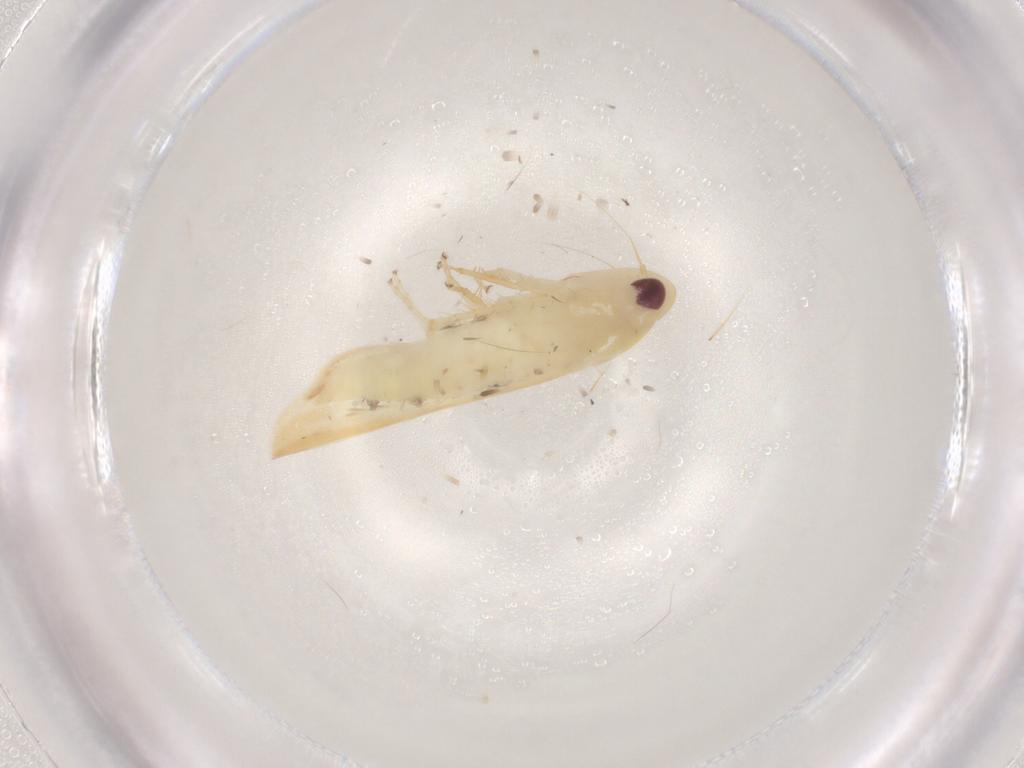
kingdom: Animalia
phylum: Arthropoda
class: Insecta
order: Hemiptera
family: Cicadellidae
